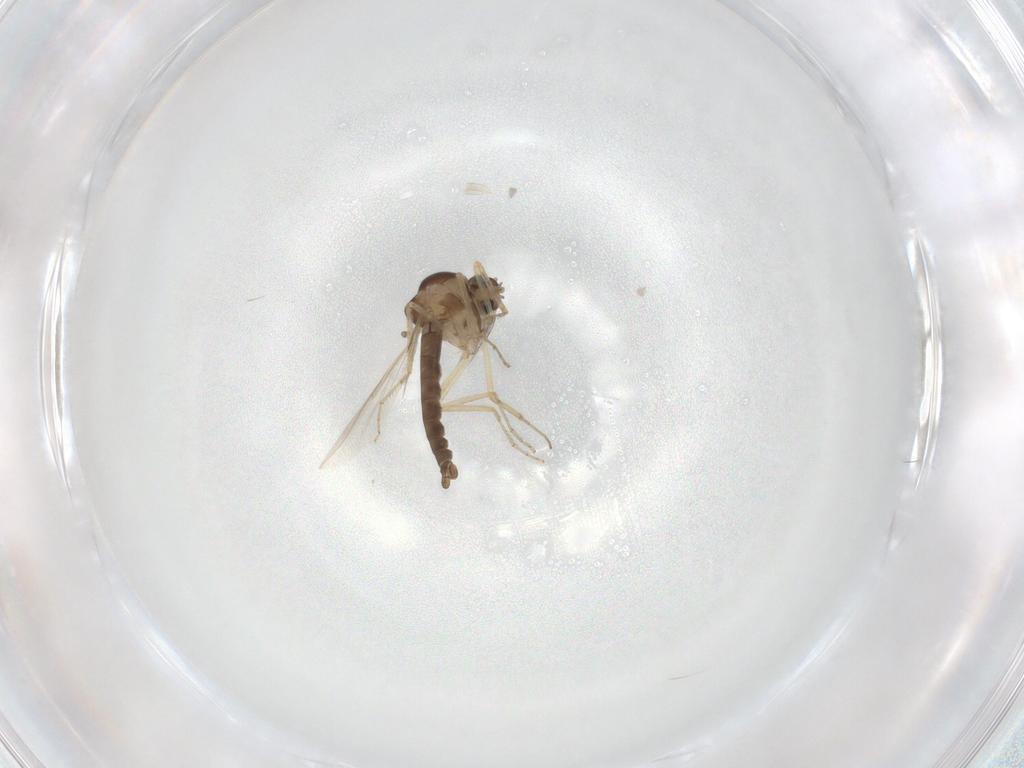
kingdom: Animalia
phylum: Arthropoda
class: Insecta
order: Diptera
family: Ceratopogonidae
